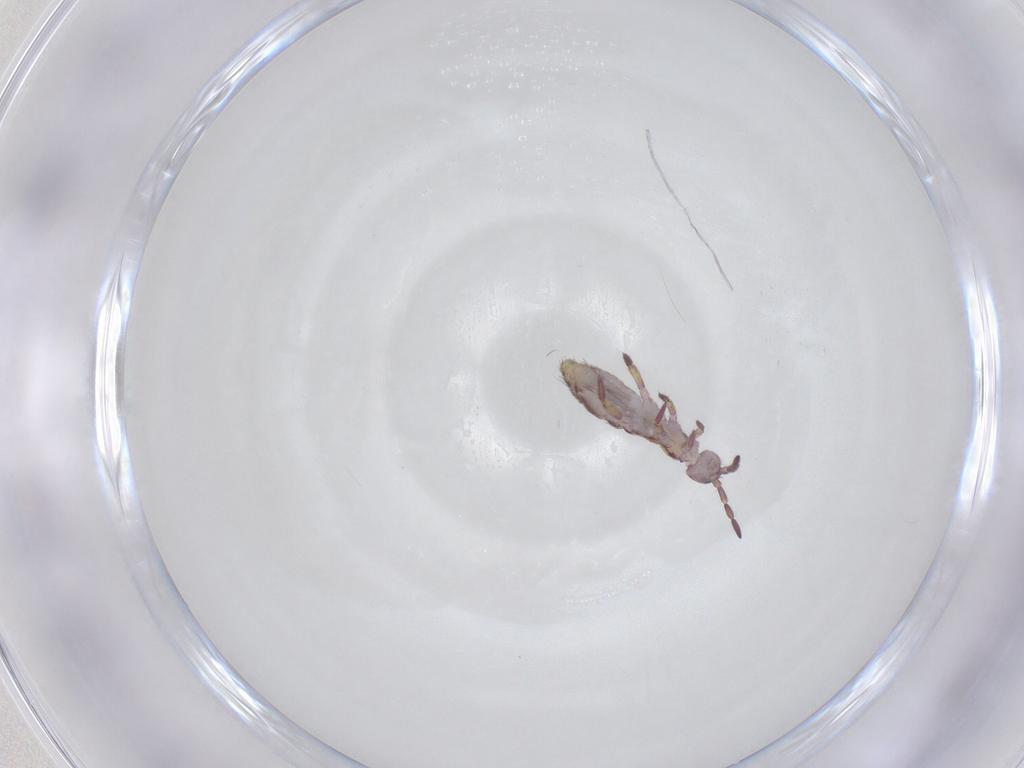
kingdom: Animalia
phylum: Arthropoda
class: Collembola
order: Entomobryomorpha
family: Isotomidae
